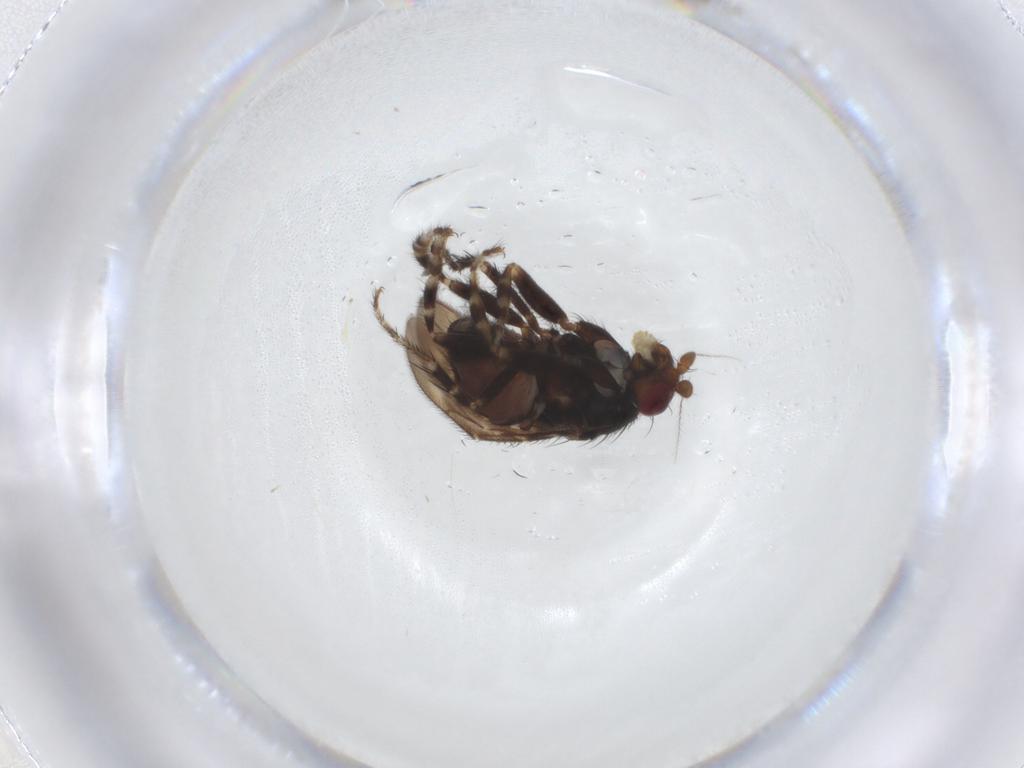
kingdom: Animalia
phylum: Arthropoda
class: Insecta
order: Diptera
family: Sphaeroceridae
